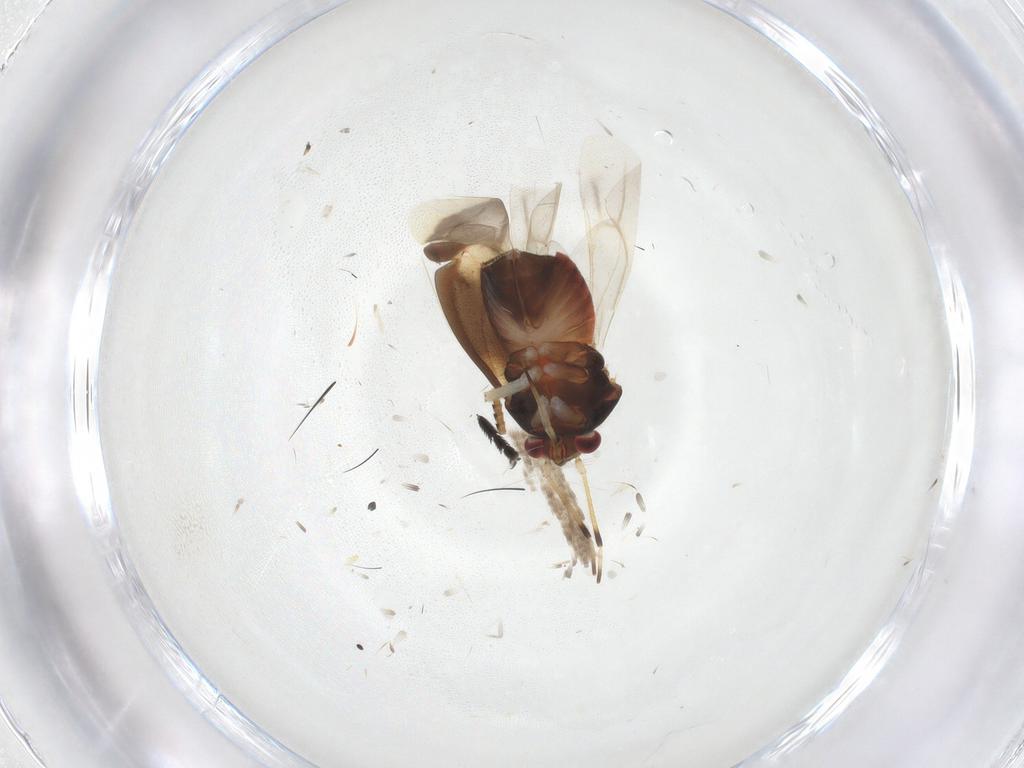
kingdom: Animalia
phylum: Arthropoda
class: Insecta
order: Hemiptera
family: Miridae
